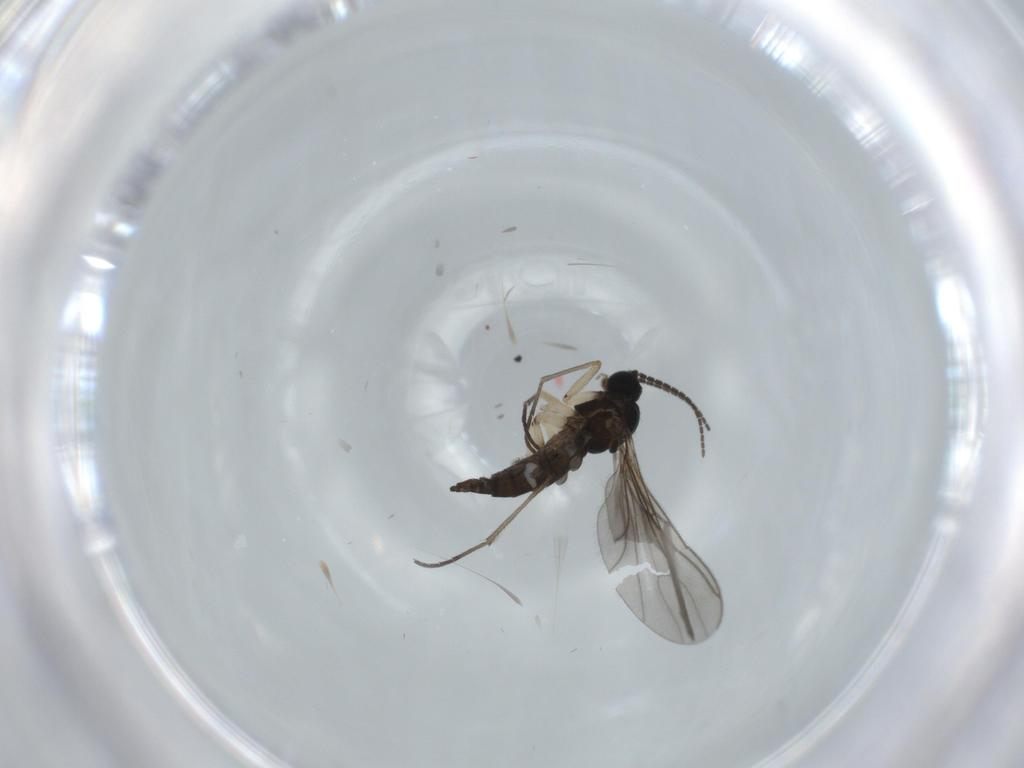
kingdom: Animalia
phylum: Arthropoda
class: Insecta
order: Diptera
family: Sciaridae
